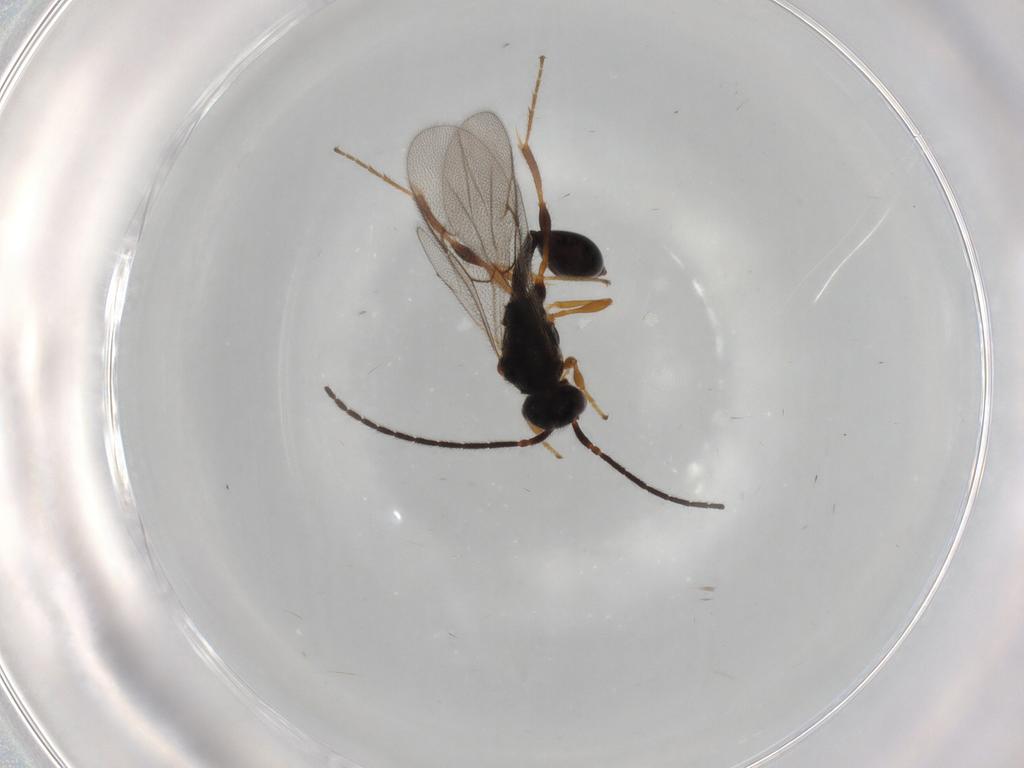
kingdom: Animalia
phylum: Arthropoda
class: Insecta
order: Hymenoptera
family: Diapriidae
